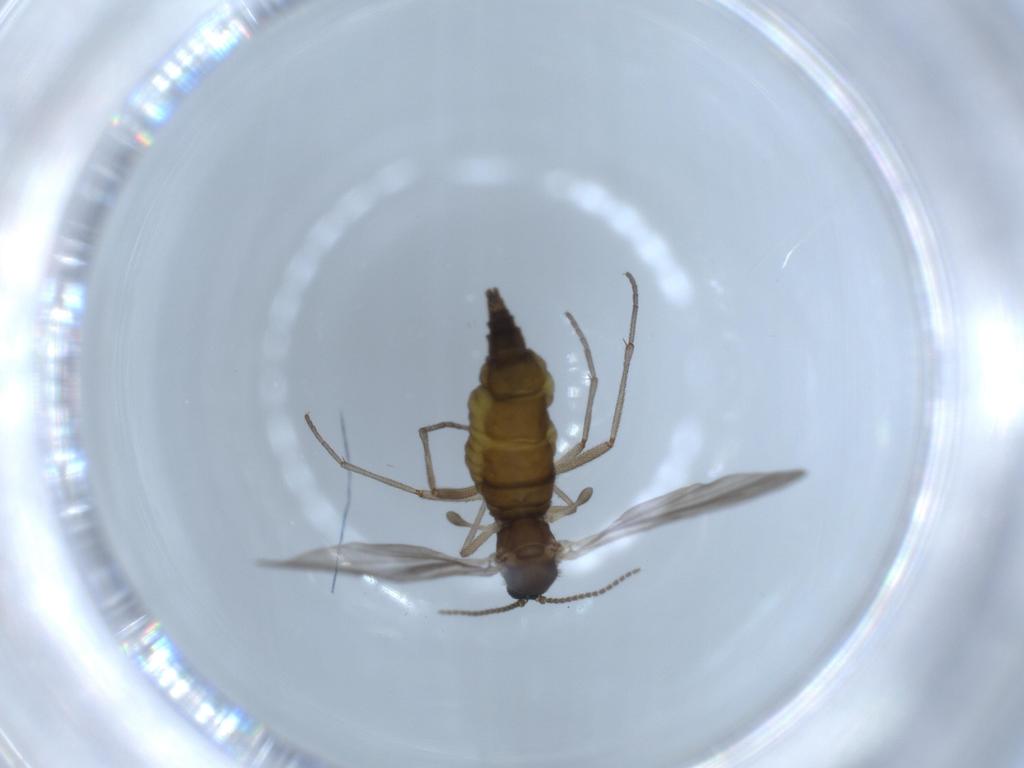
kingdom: Animalia
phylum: Arthropoda
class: Insecta
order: Diptera
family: Sciaridae
